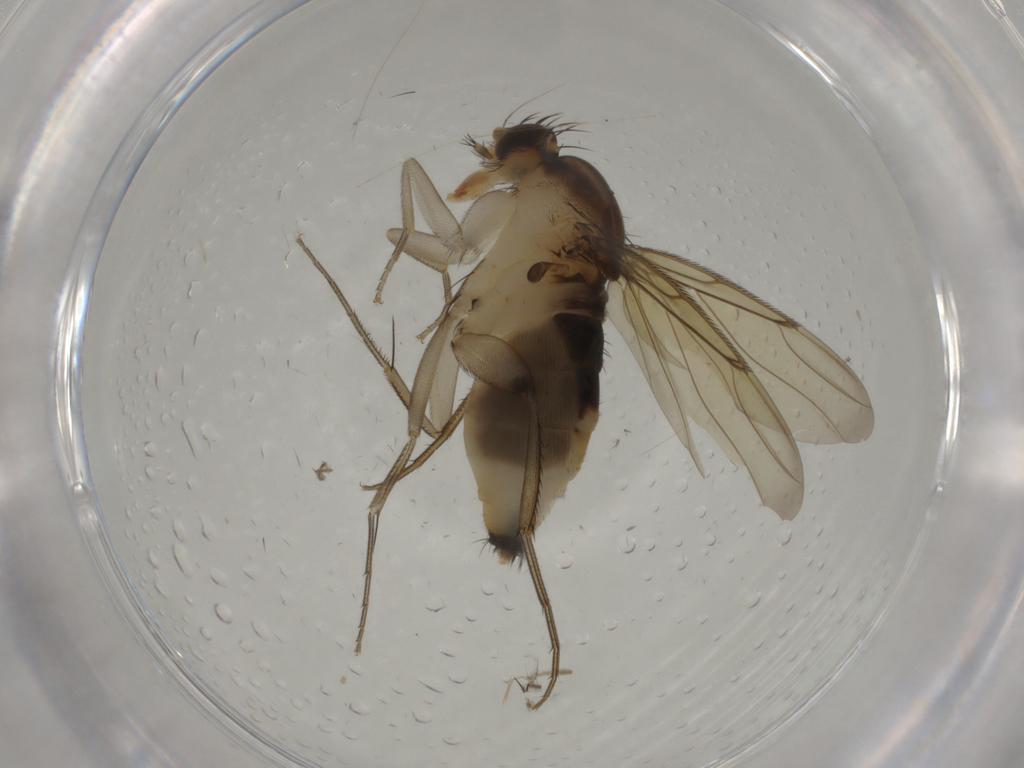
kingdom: Animalia
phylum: Arthropoda
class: Insecta
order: Diptera
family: Phoridae
